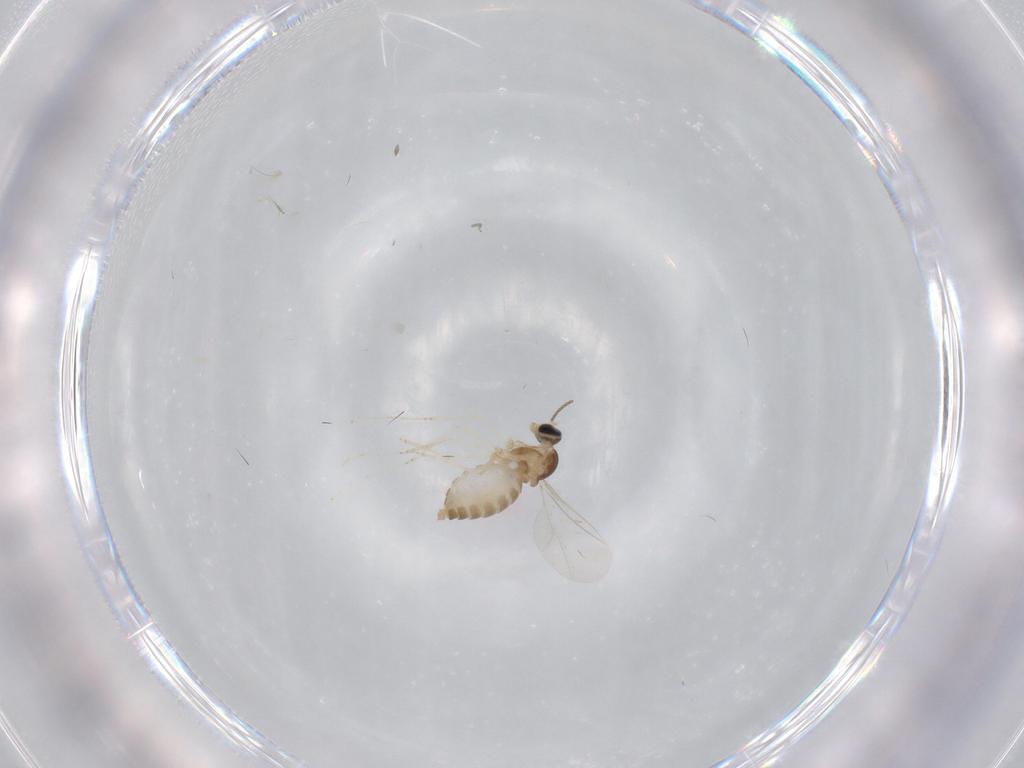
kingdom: Animalia
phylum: Arthropoda
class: Insecta
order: Diptera
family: Cecidomyiidae
